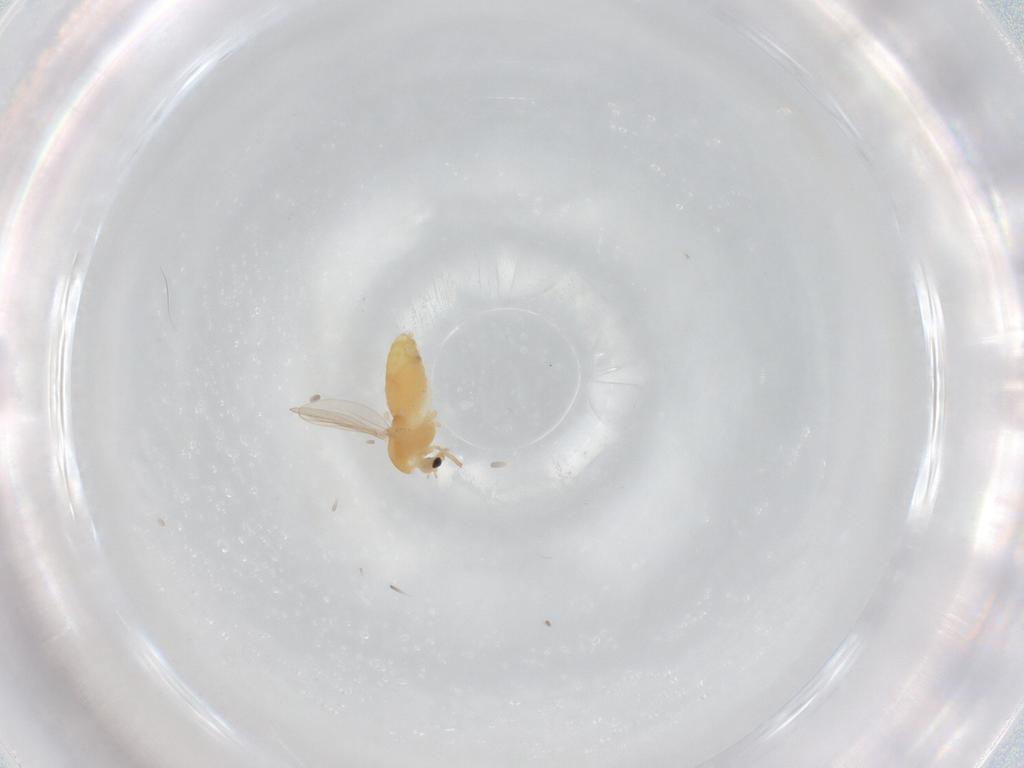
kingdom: Animalia
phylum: Arthropoda
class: Insecta
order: Diptera
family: Chironomidae
